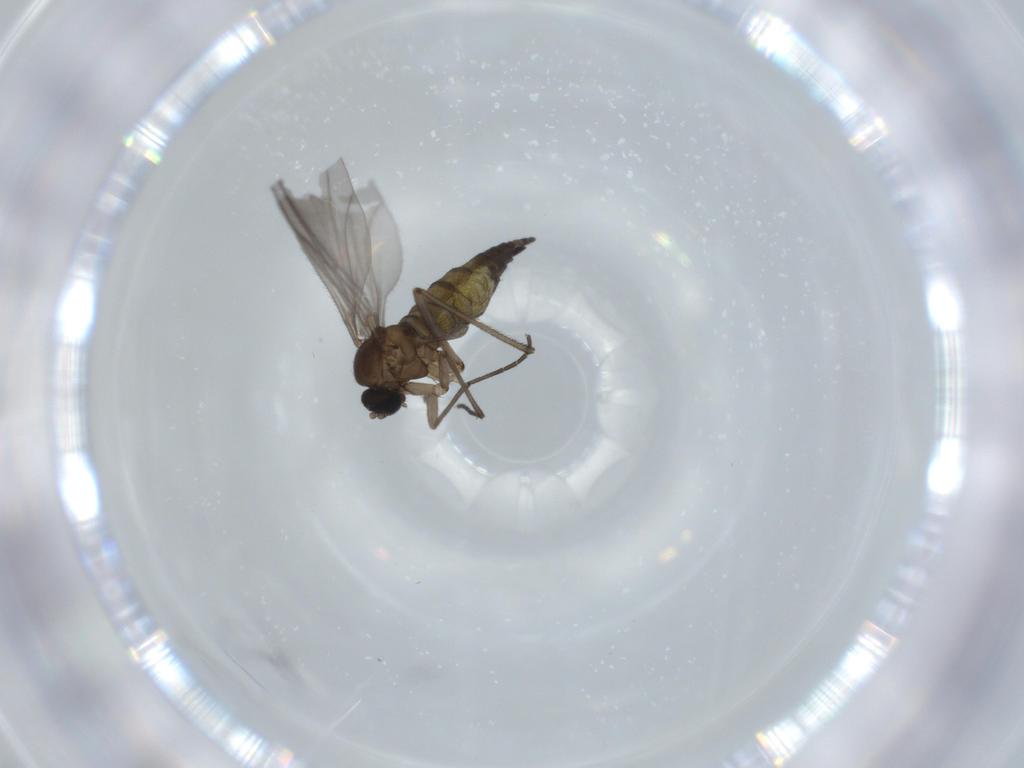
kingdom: Animalia
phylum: Arthropoda
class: Insecta
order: Diptera
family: Sciaridae
